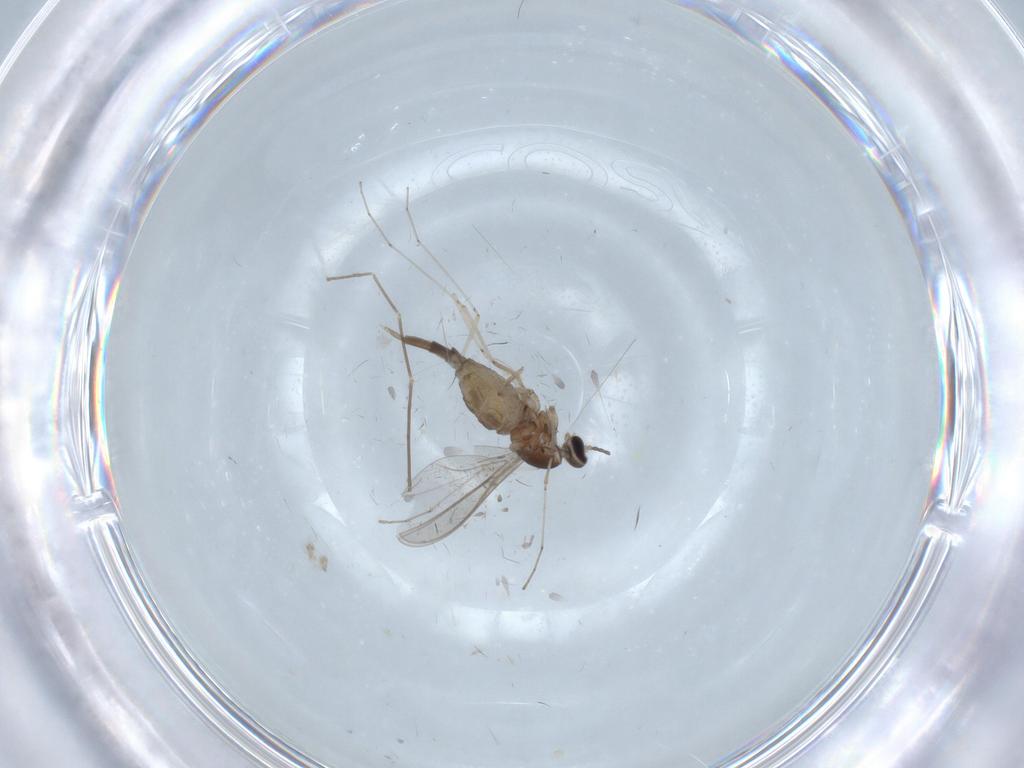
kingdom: Animalia
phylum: Arthropoda
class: Insecta
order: Diptera
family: Cecidomyiidae
